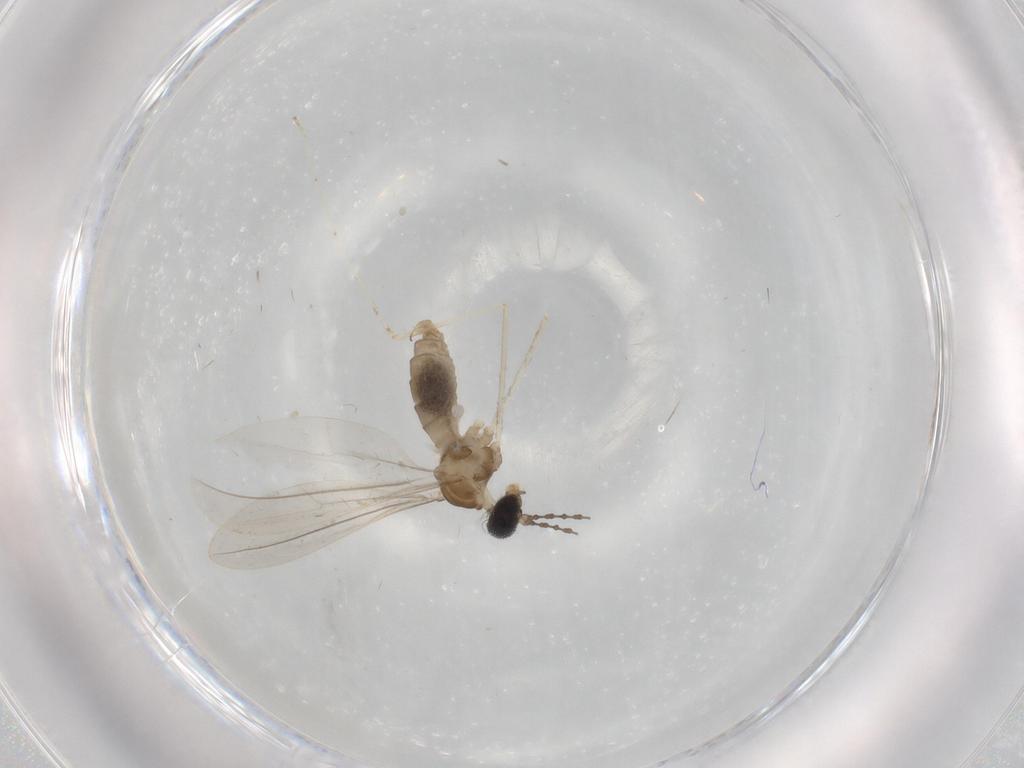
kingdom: Animalia
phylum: Arthropoda
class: Insecta
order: Diptera
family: Cecidomyiidae
